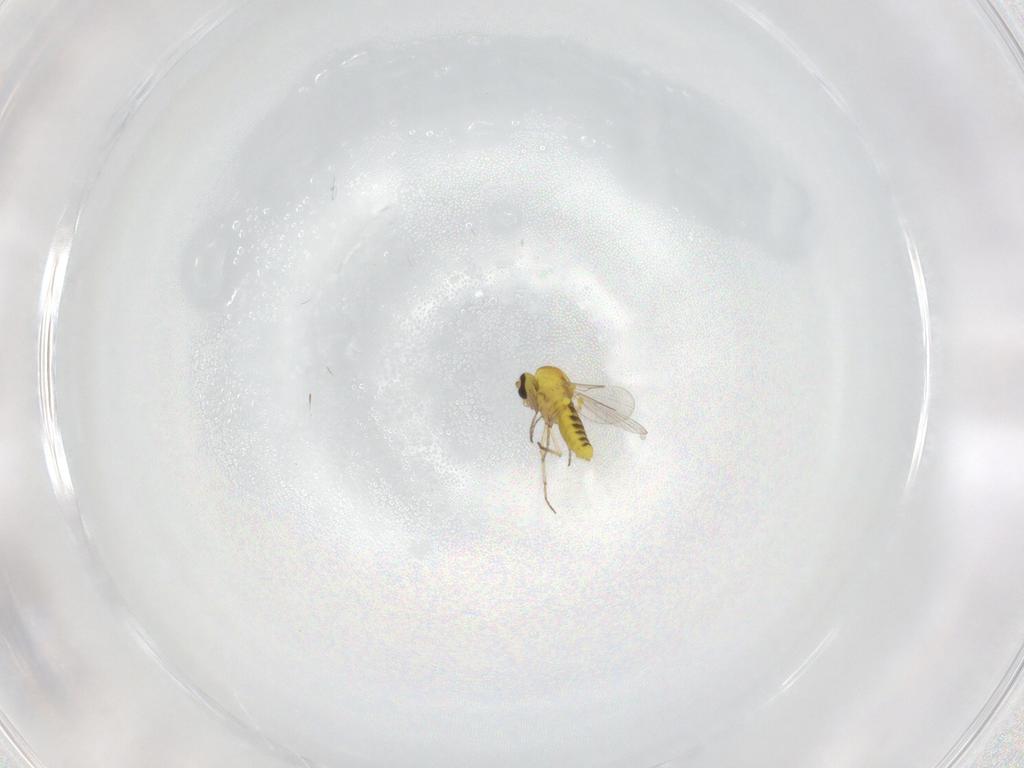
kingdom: Animalia
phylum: Arthropoda
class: Insecta
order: Diptera
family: Ceratopogonidae
